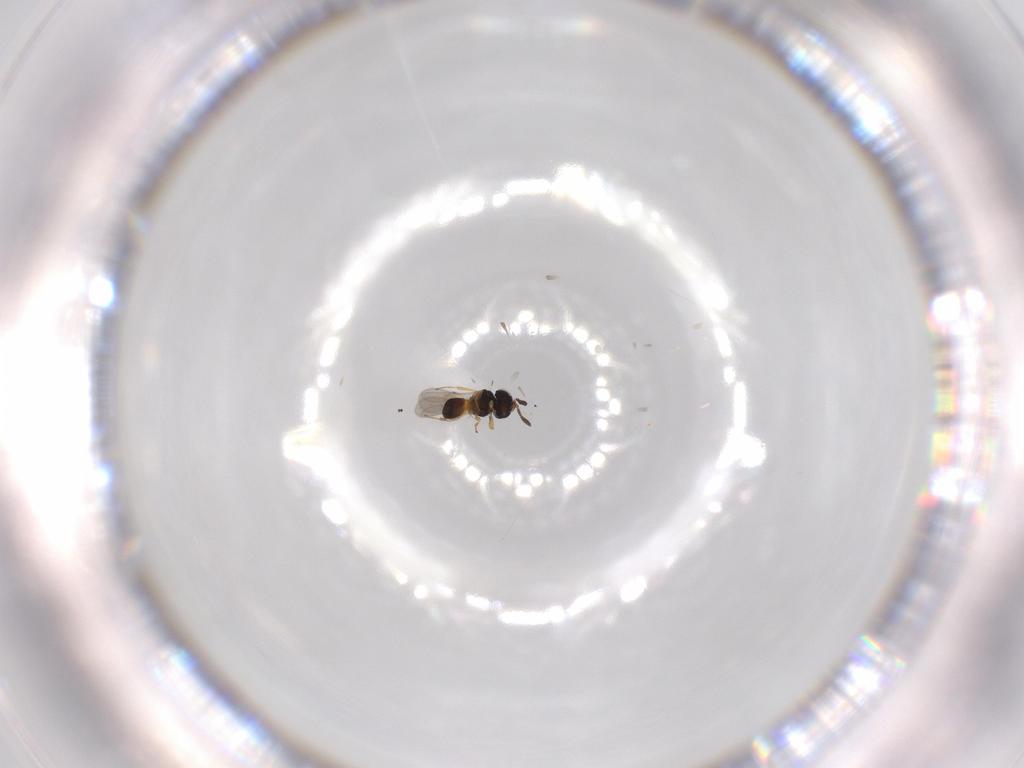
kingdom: Animalia
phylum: Arthropoda
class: Insecta
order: Hymenoptera
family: Scelionidae
